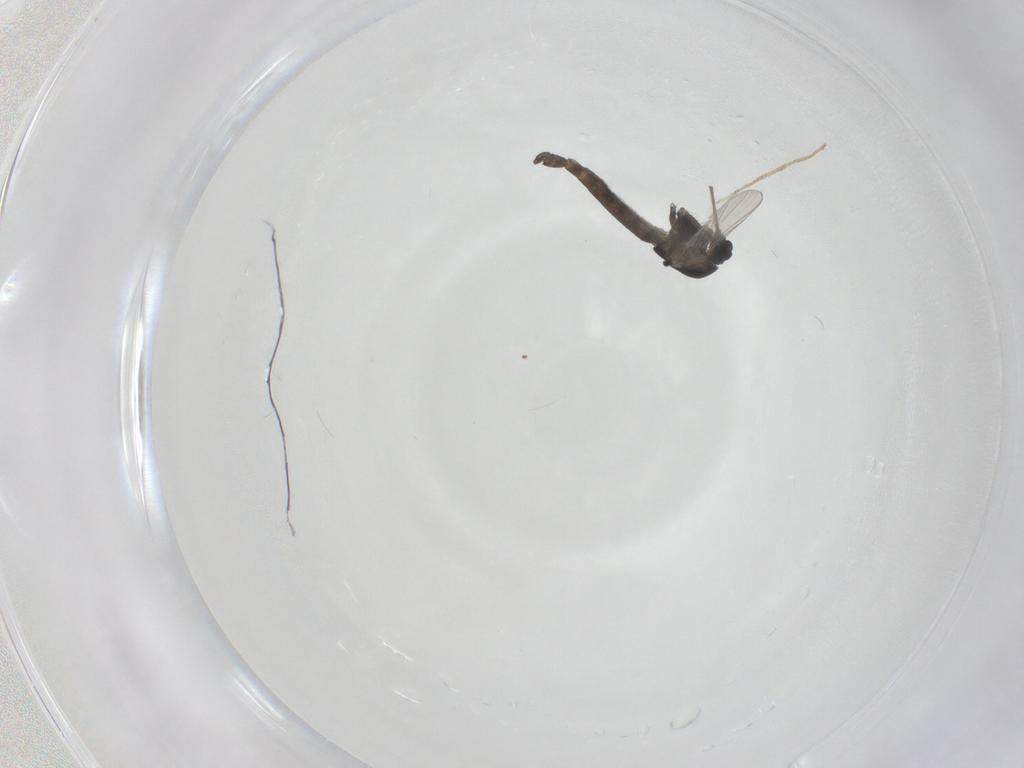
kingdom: Animalia
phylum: Arthropoda
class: Insecta
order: Diptera
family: Chironomidae
